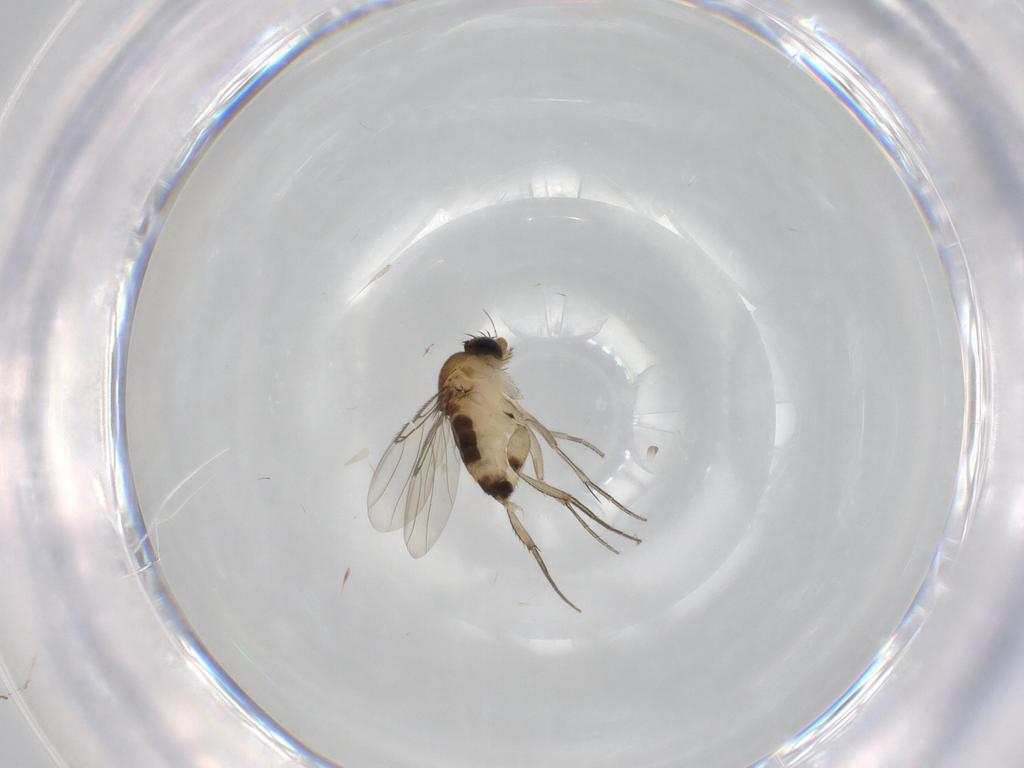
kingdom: Animalia
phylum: Arthropoda
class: Insecta
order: Diptera
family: Phoridae
